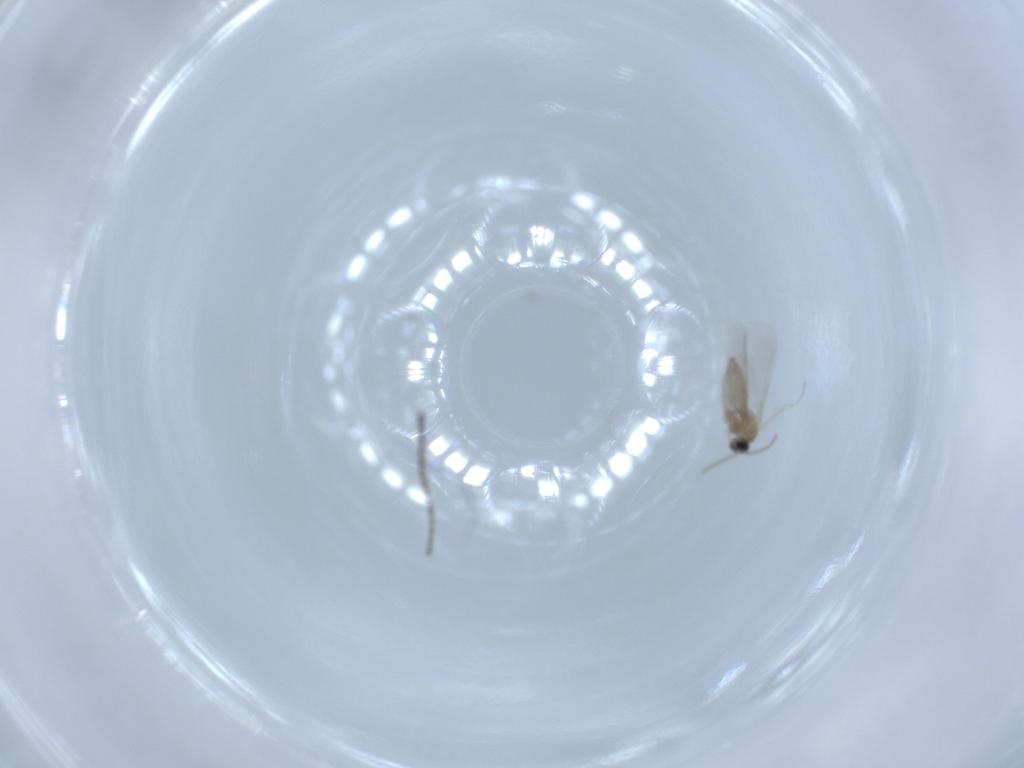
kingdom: Animalia
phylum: Arthropoda
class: Insecta
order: Diptera
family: Cecidomyiidae
